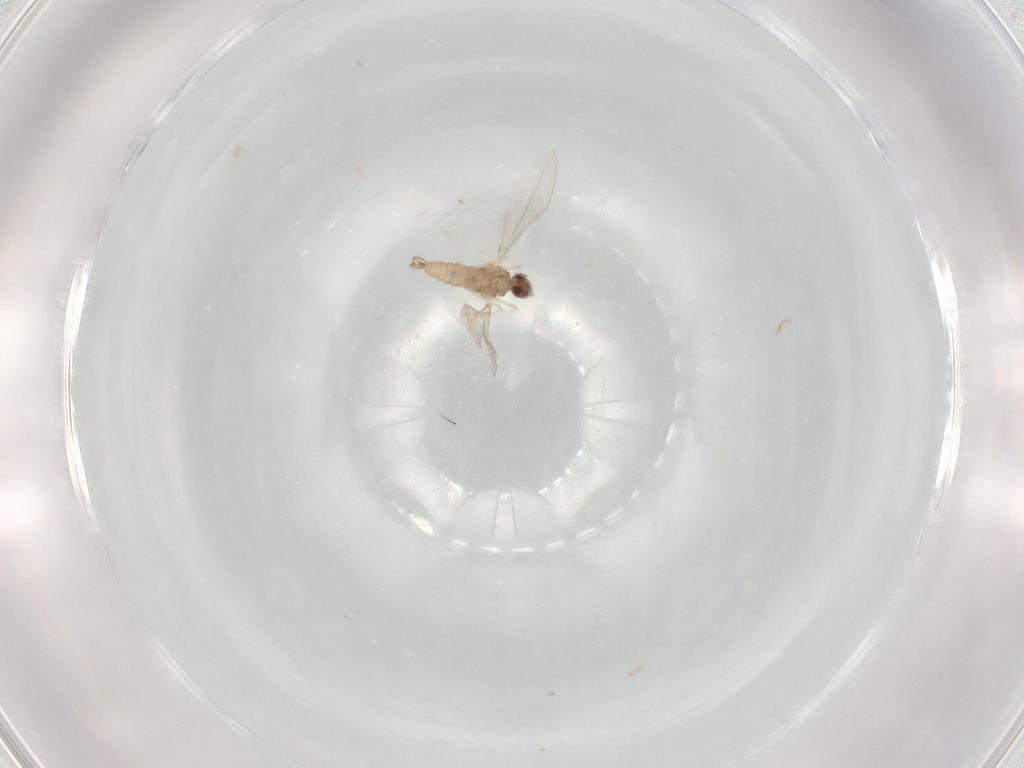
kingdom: Animalia
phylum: Arthropoda
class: Insecta
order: Diptera
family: Cecidomyiidae
